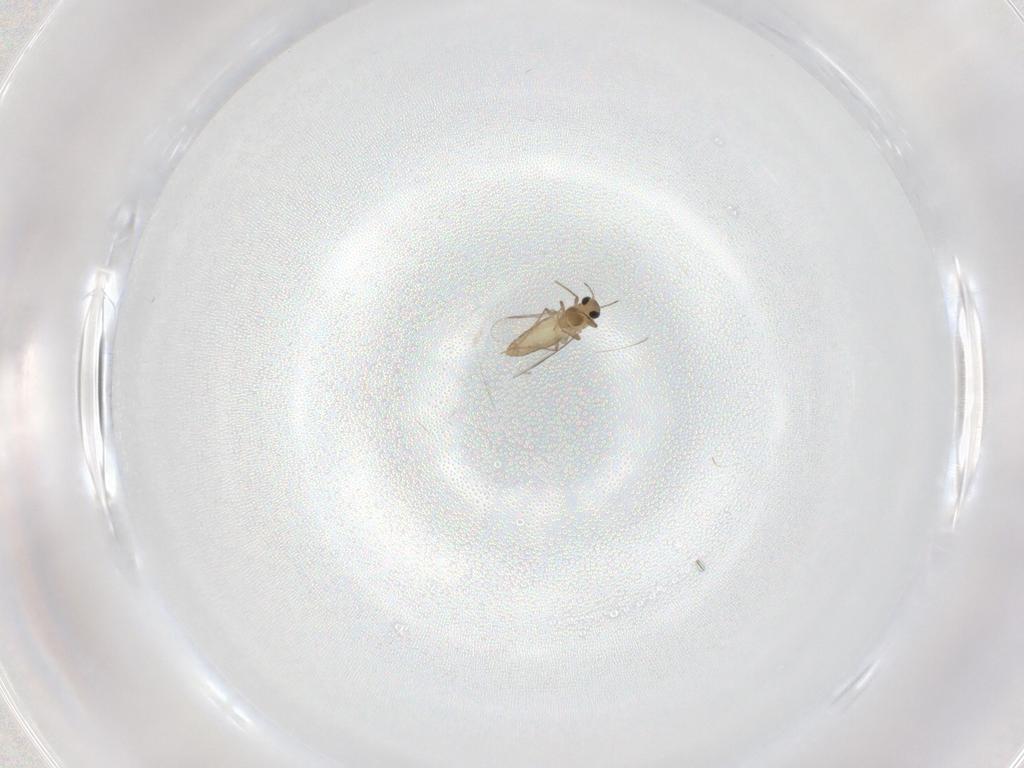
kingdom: Animalia
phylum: Arthropoda
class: Insecta
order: Diptera
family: Chironomidae
